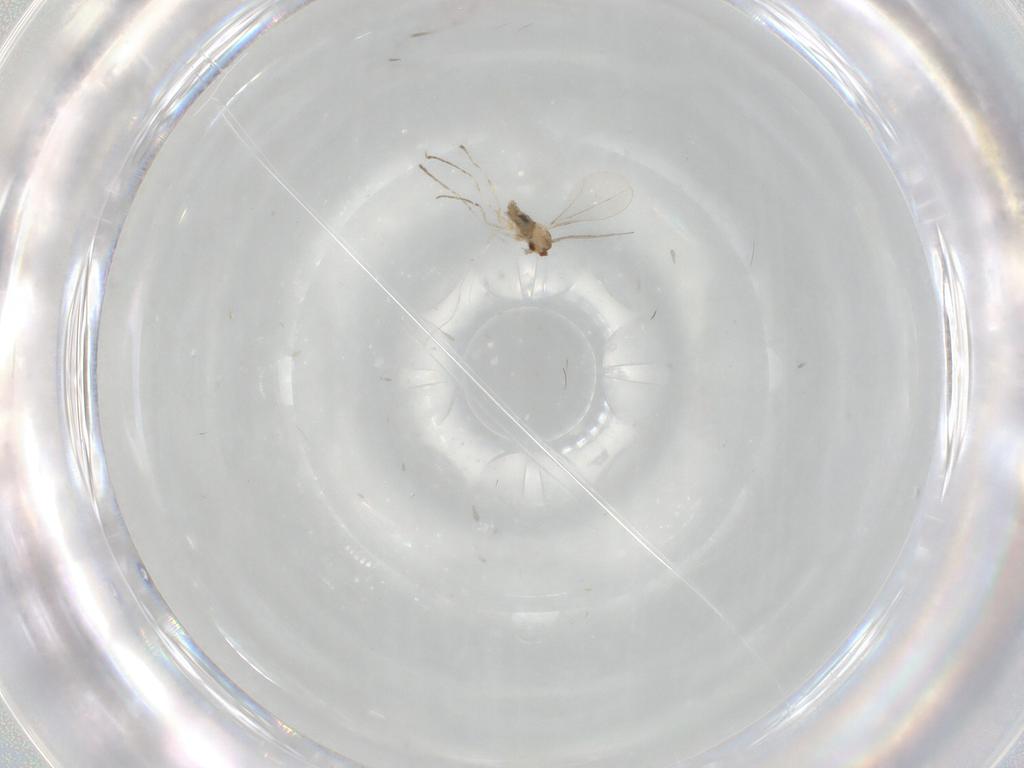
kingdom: Animalia
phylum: Arthropoda
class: Insecta
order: Diptera
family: Cecidomyiidae
